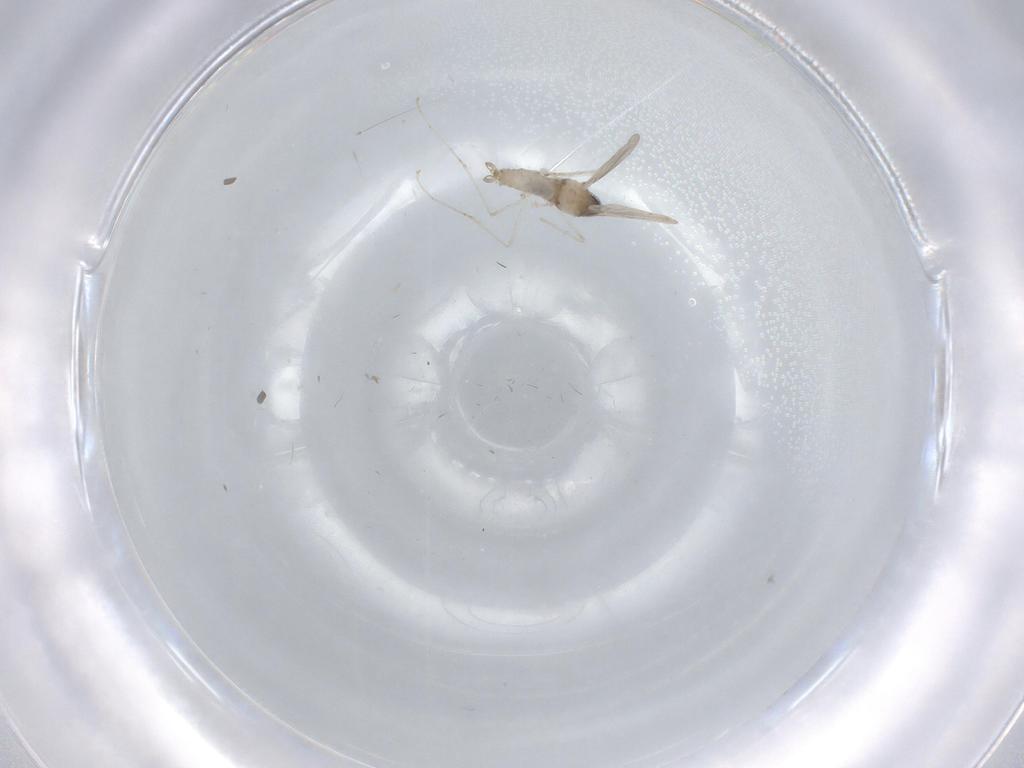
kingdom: Animalia
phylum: Arthropoda
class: Insecta
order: Diptera
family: Cecidomyiidae
